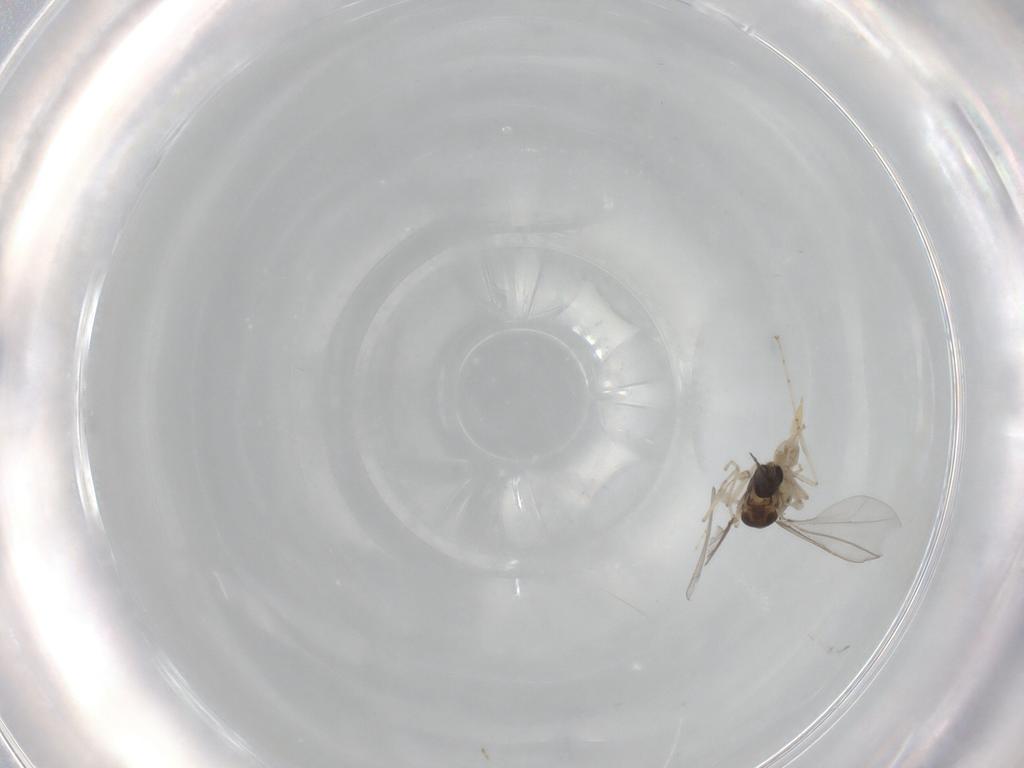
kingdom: Animalia
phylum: Arthropoda
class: Insecta
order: Diptera
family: Cecidomyiidae
